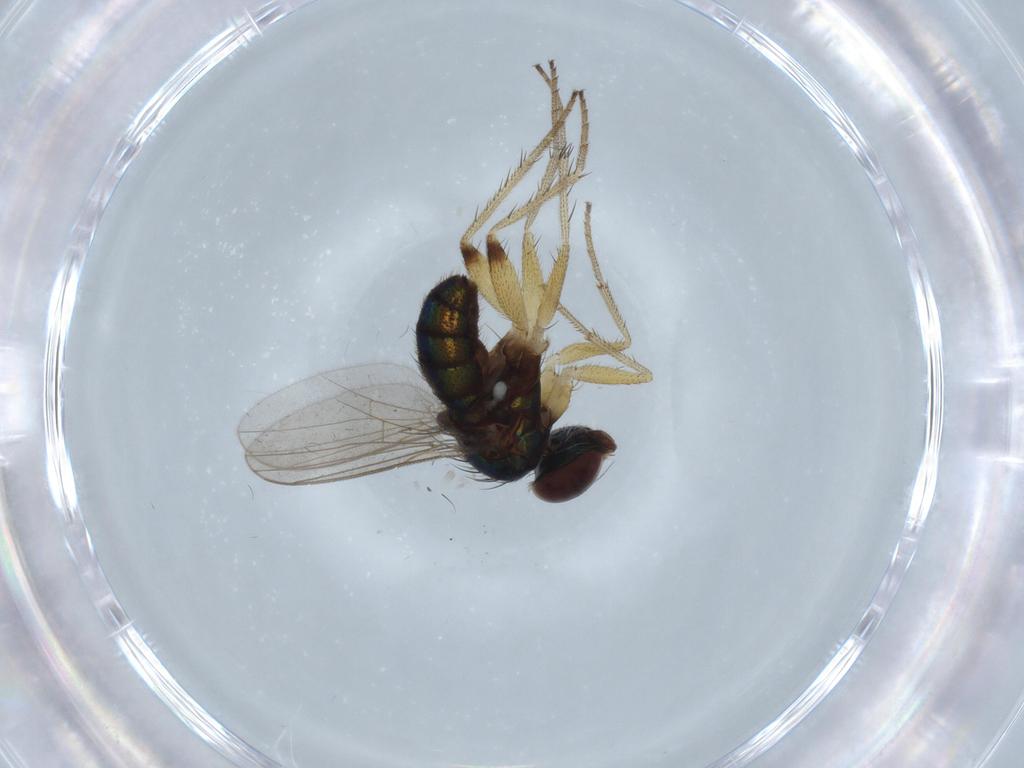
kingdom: Animalia
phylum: Arthropoda
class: Insecta
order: Diptera
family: Dolichopodidae
